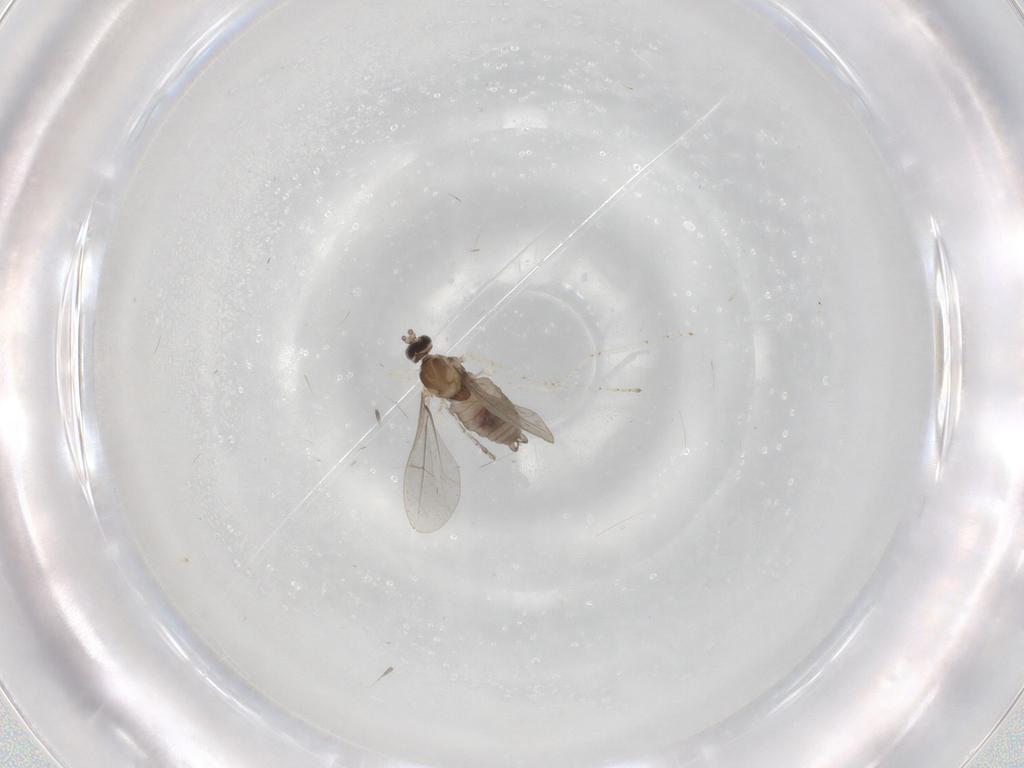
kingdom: Animalia
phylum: Arthropoda
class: Insecta
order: Diptera
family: Cecidomyiidae
